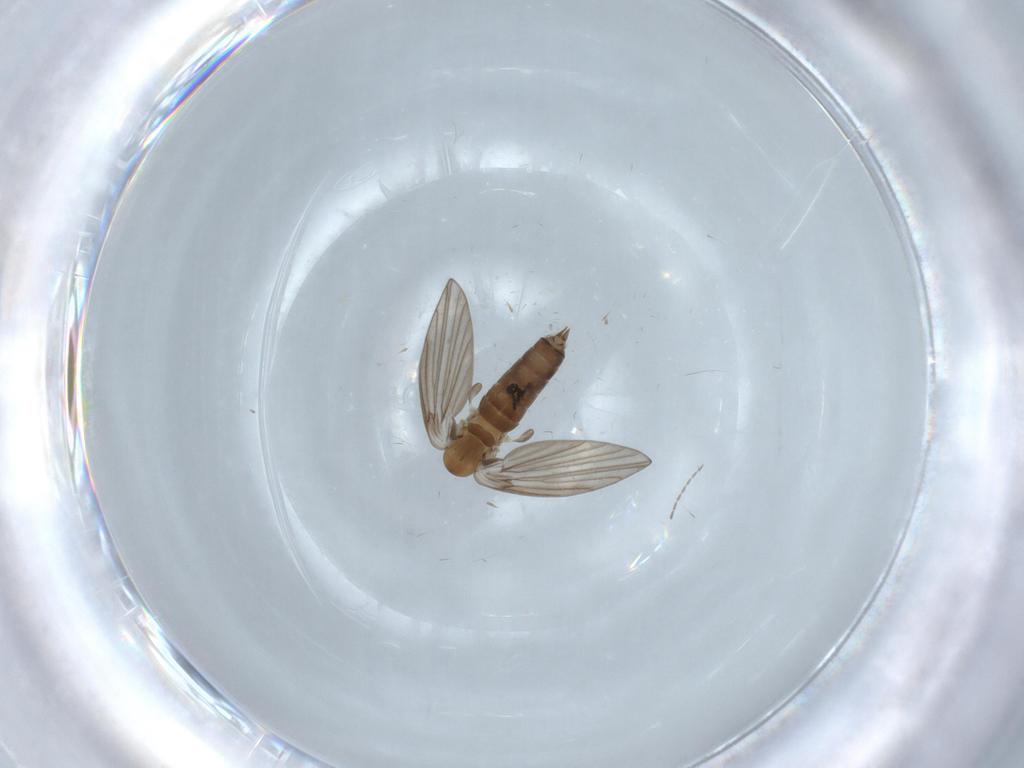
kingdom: Animalia
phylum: Arthropoda
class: Insecta
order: Diptera
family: Cecidomyiidae
